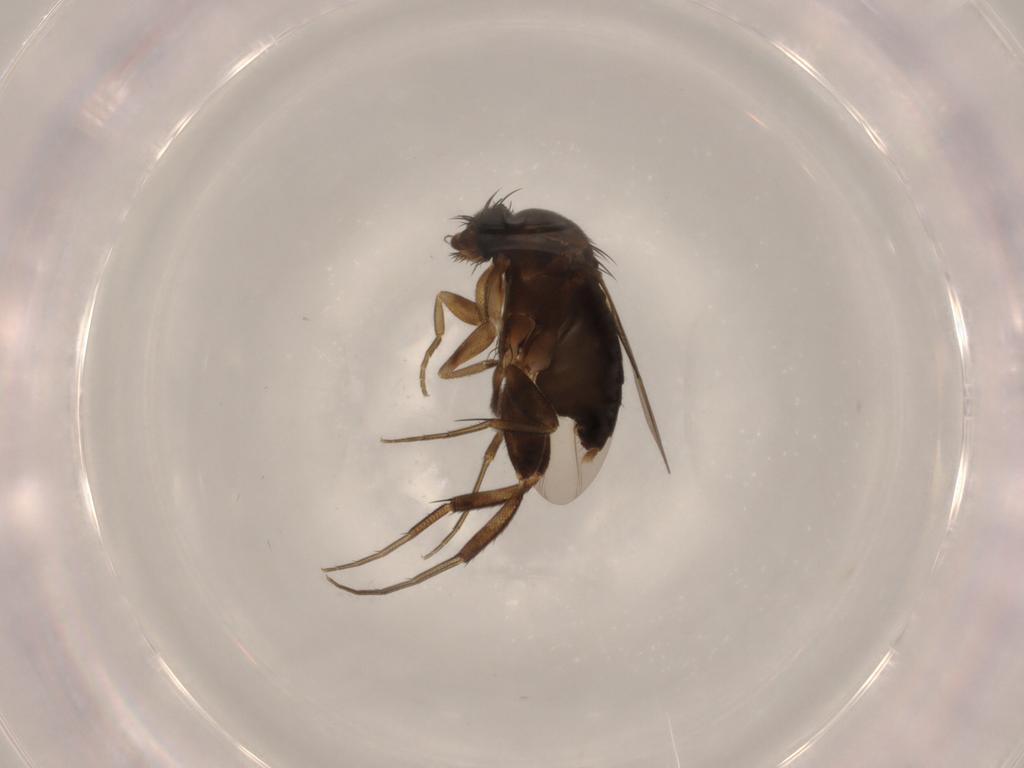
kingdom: Animalia
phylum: Arthropoda
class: Insecta
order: Diptera
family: Phoridae
